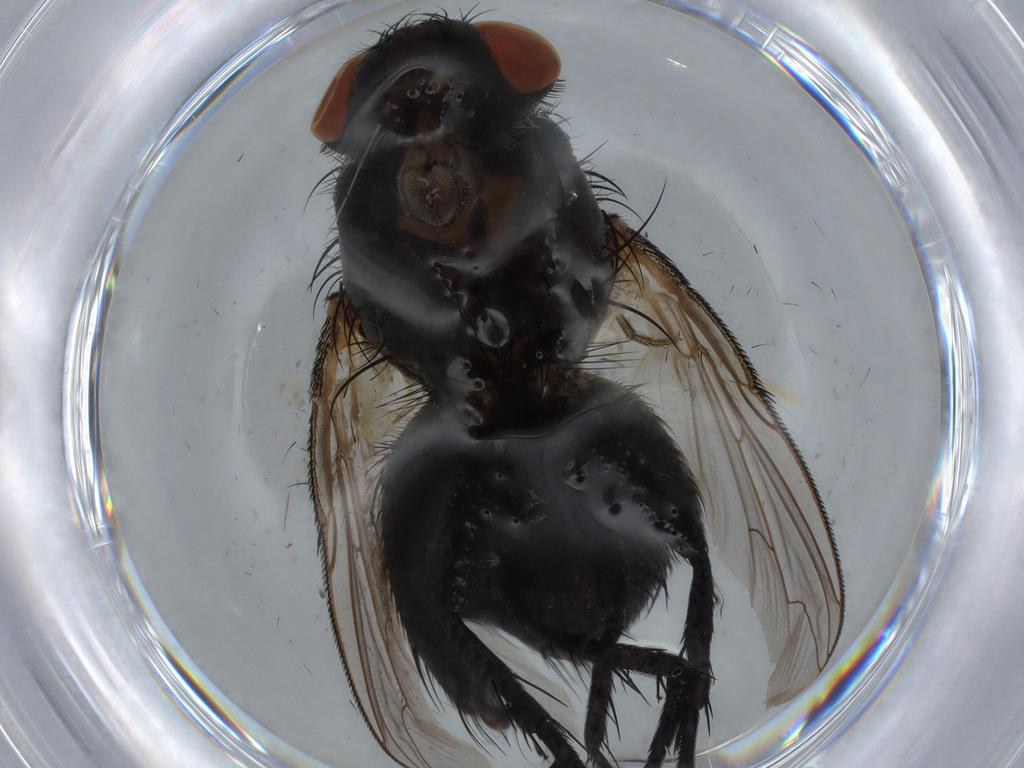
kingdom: Animalia
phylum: Arthropoda
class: Insecta
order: Diptera
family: Sarcophagidae
